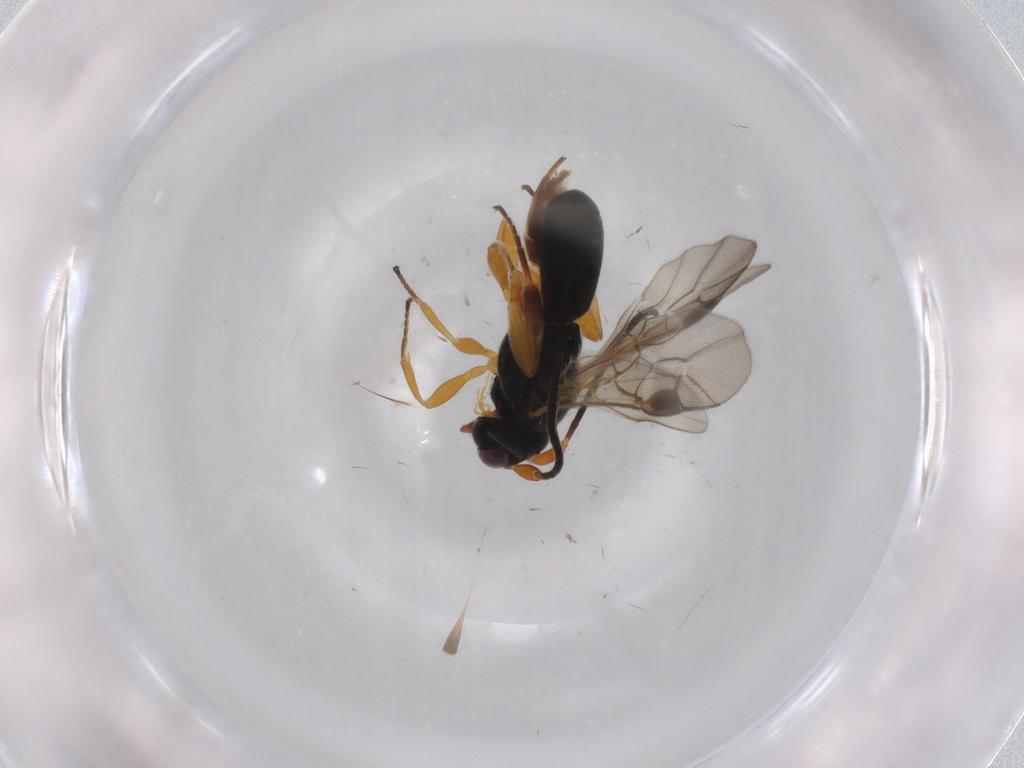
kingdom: Animalia
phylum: Arthropoda
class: Insecta
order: Hymenoptera
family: Braconidae
